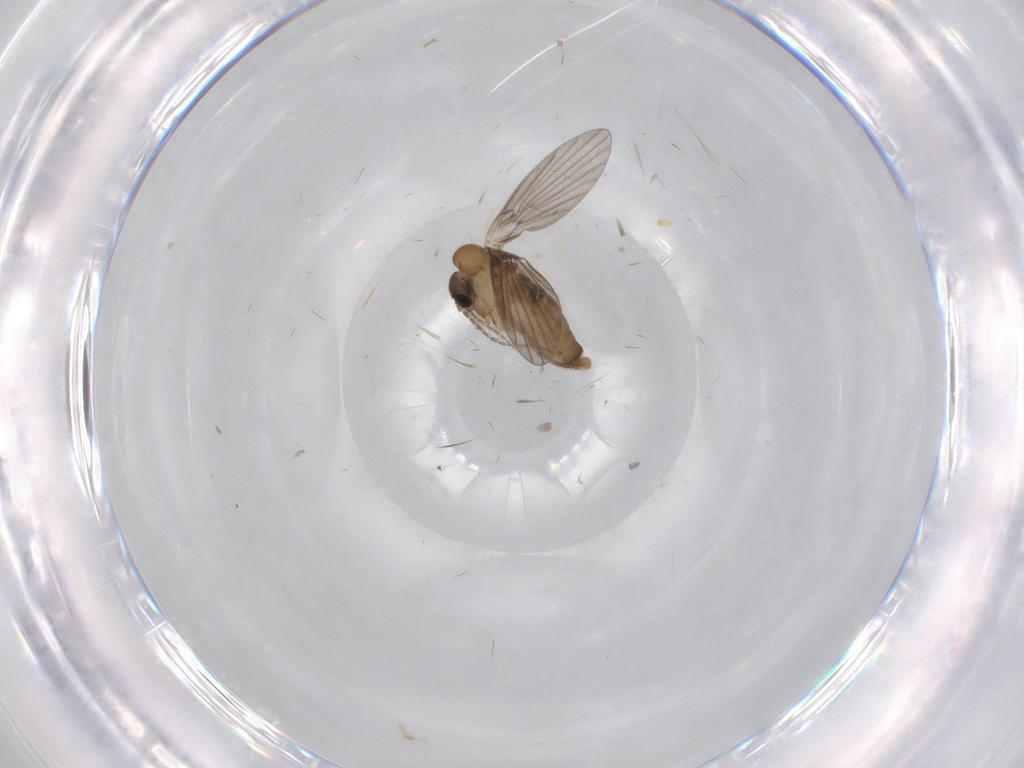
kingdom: Animalia
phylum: Arthropoda
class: Insecta
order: Diptera
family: Sciaridae
